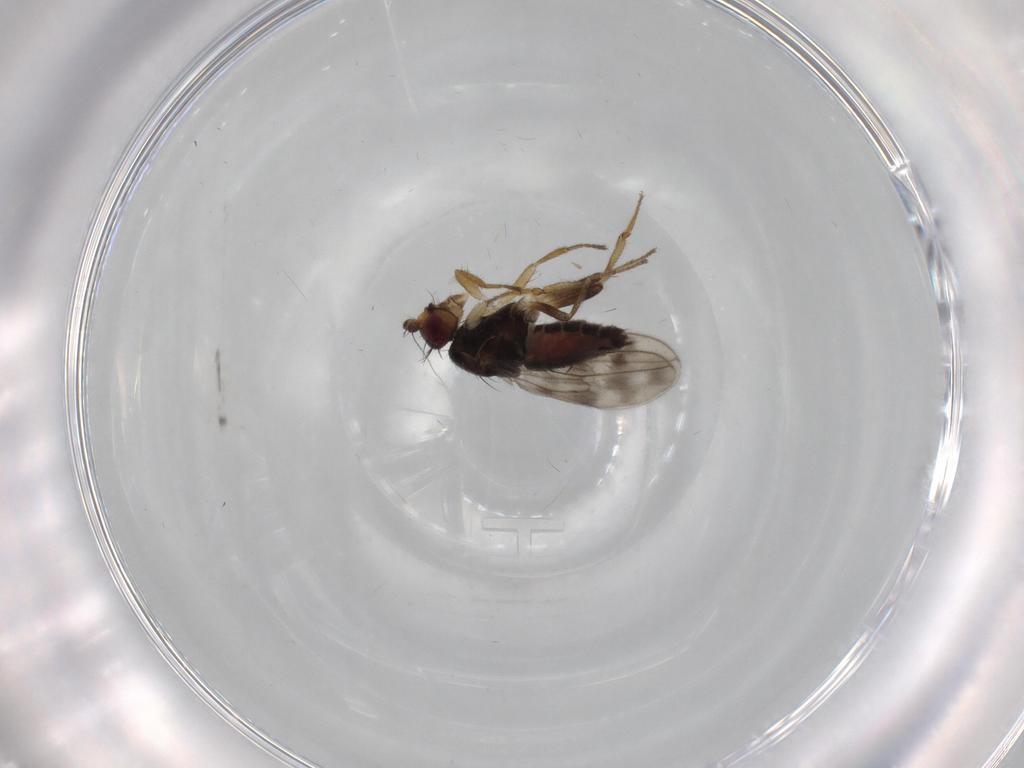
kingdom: Animalia
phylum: Arthropoda
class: Insecta
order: Diptera
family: Sphaeroceridae
